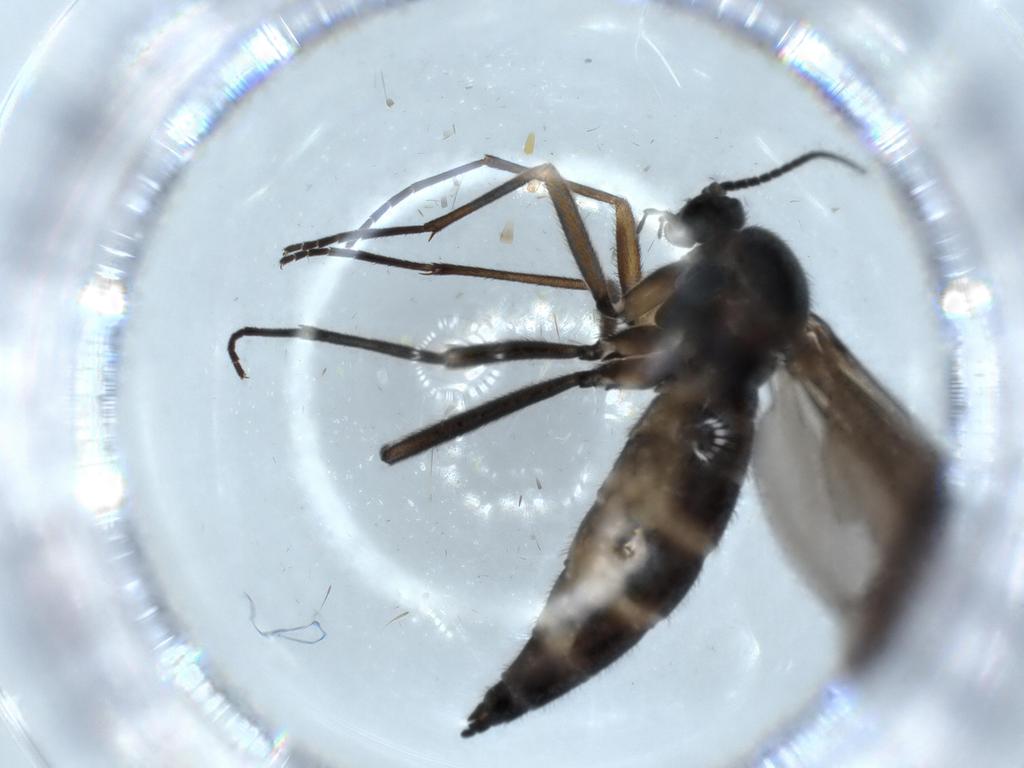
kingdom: Animalia
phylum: Arthropoda
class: Insecta
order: Diptera
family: Sciaridae
